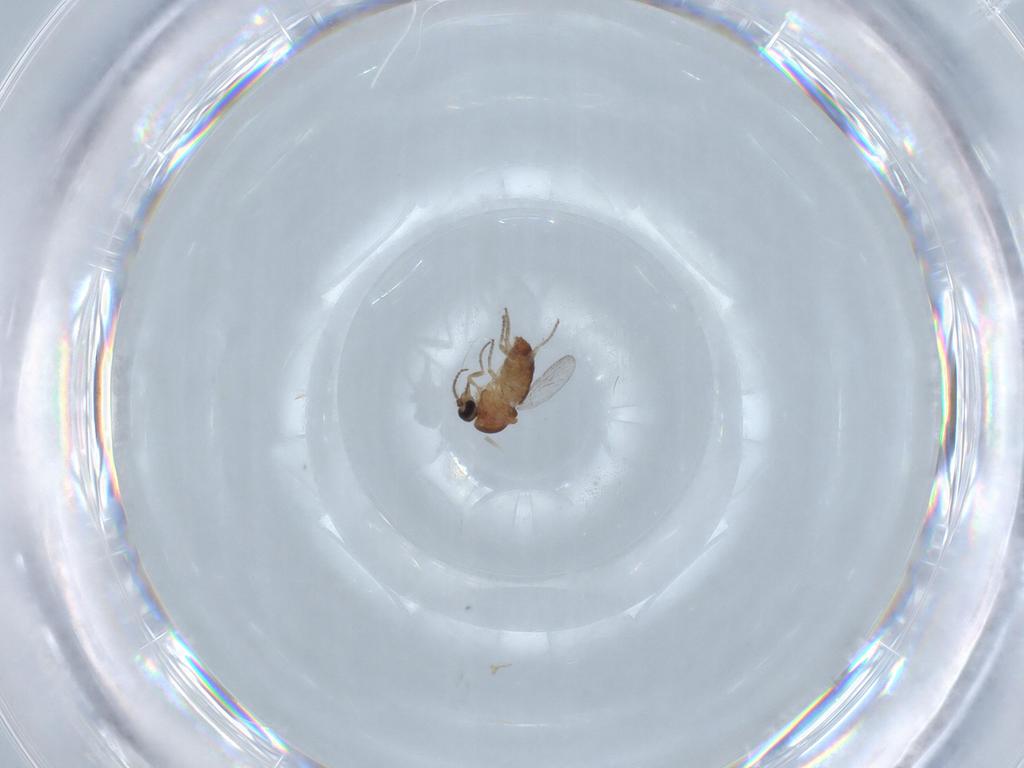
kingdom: Animalia
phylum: Arthropoda
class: Insecta
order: Diptera
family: Ceratopogonidae
